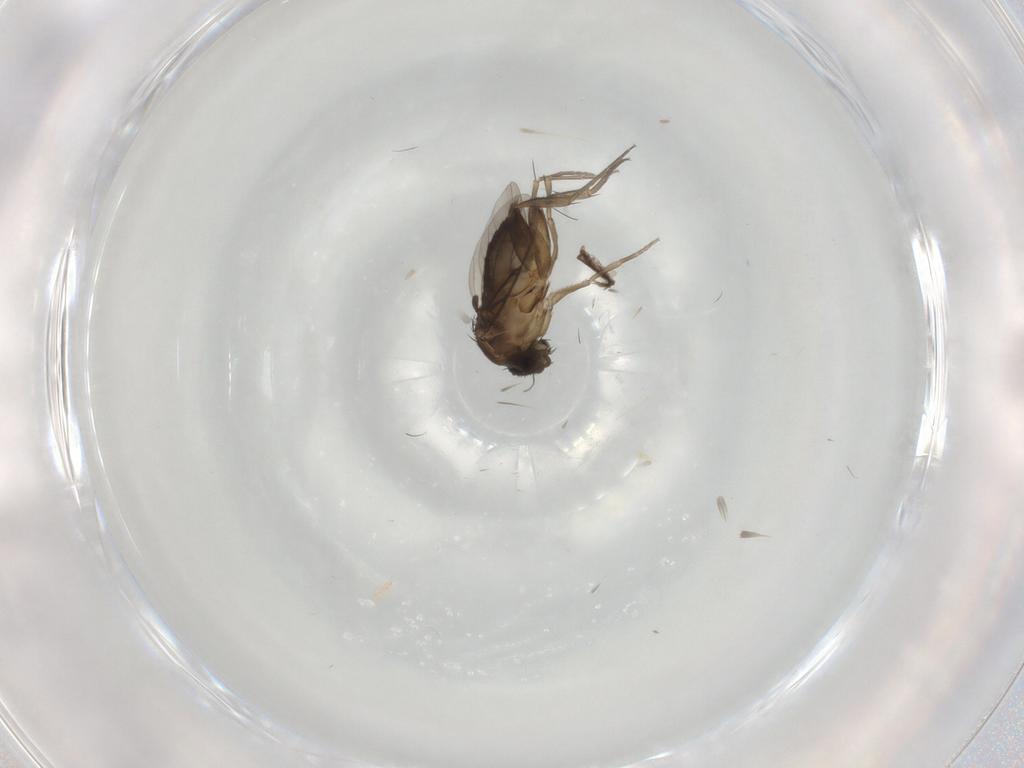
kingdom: Animalia
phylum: Arthropoda
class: Insecta
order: Diptera
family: Phoridae
